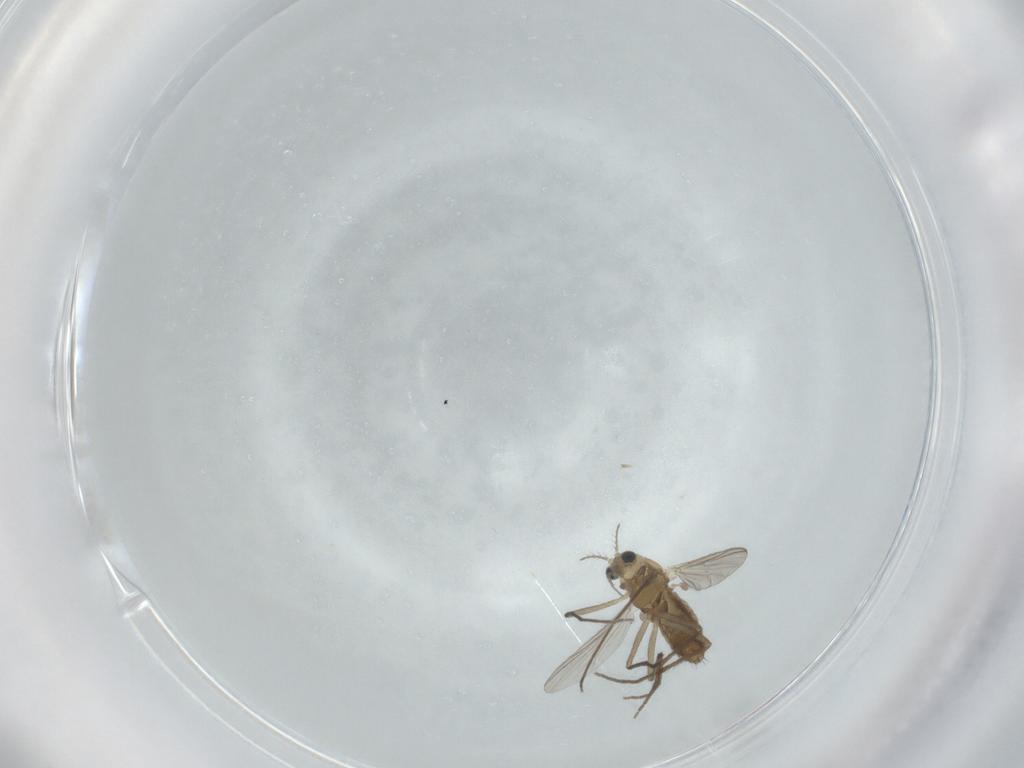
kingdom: Animalia
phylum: Arthropoda
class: Insecta
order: Diptera
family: Chironomidae
